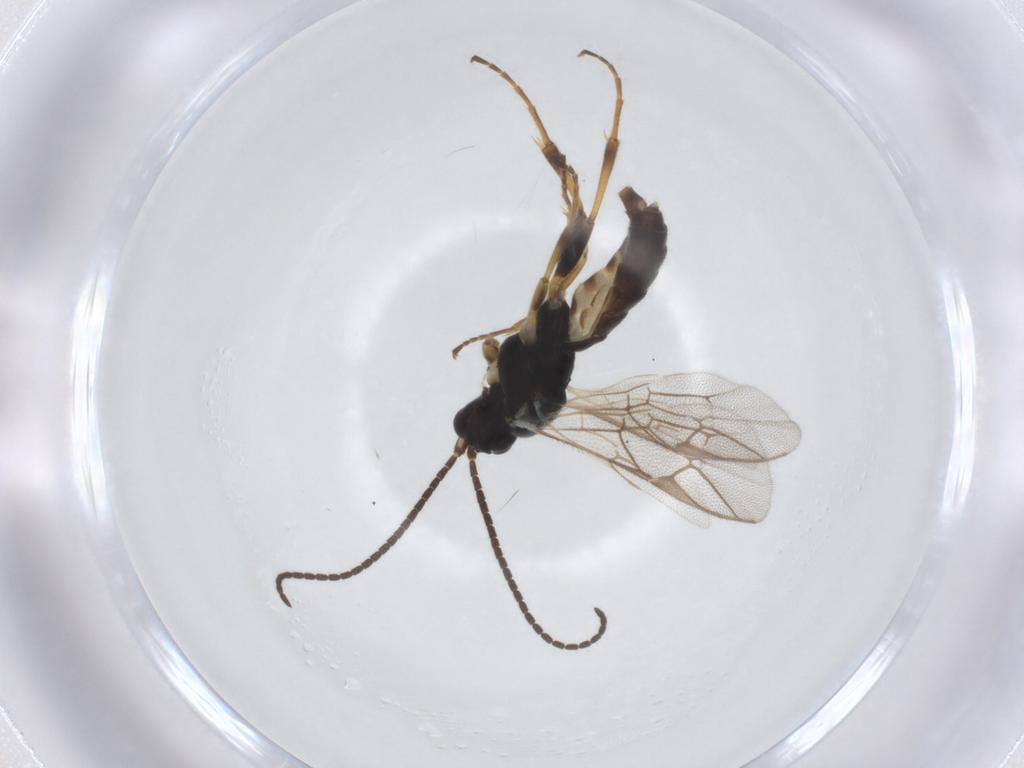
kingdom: Animalia
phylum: Arthropoda
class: Insecta
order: Hymenoptera
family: Ichneumonidae
